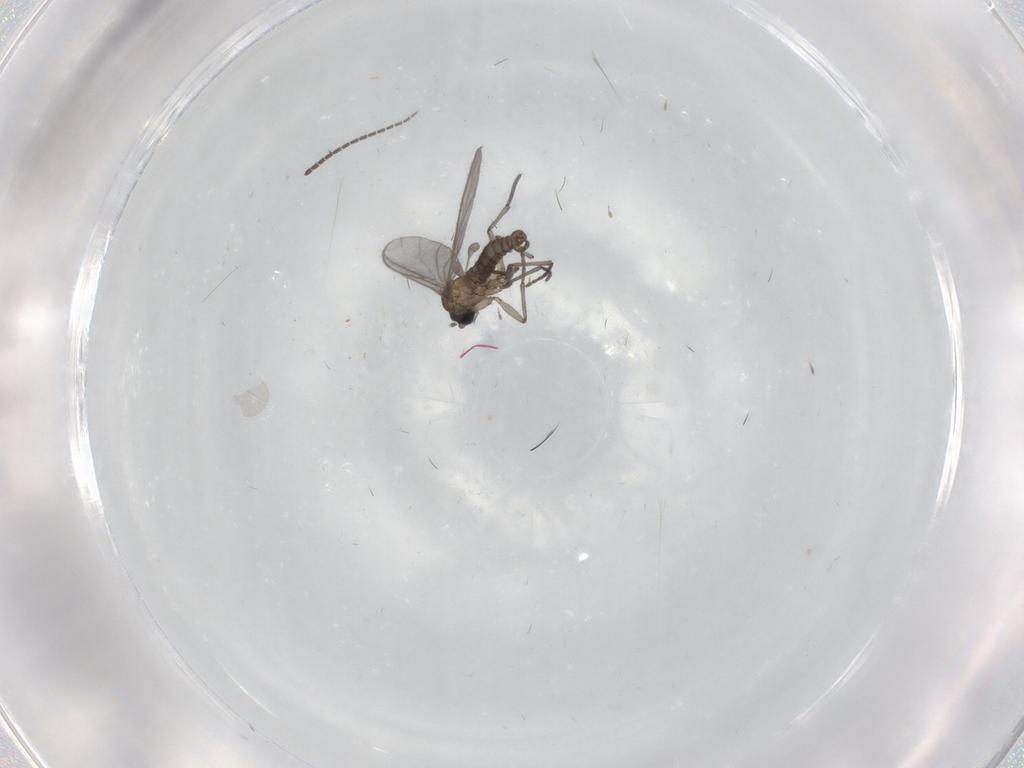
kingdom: Animalia
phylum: Arthropoda
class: Insecta
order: Diptera
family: Sciaridae
